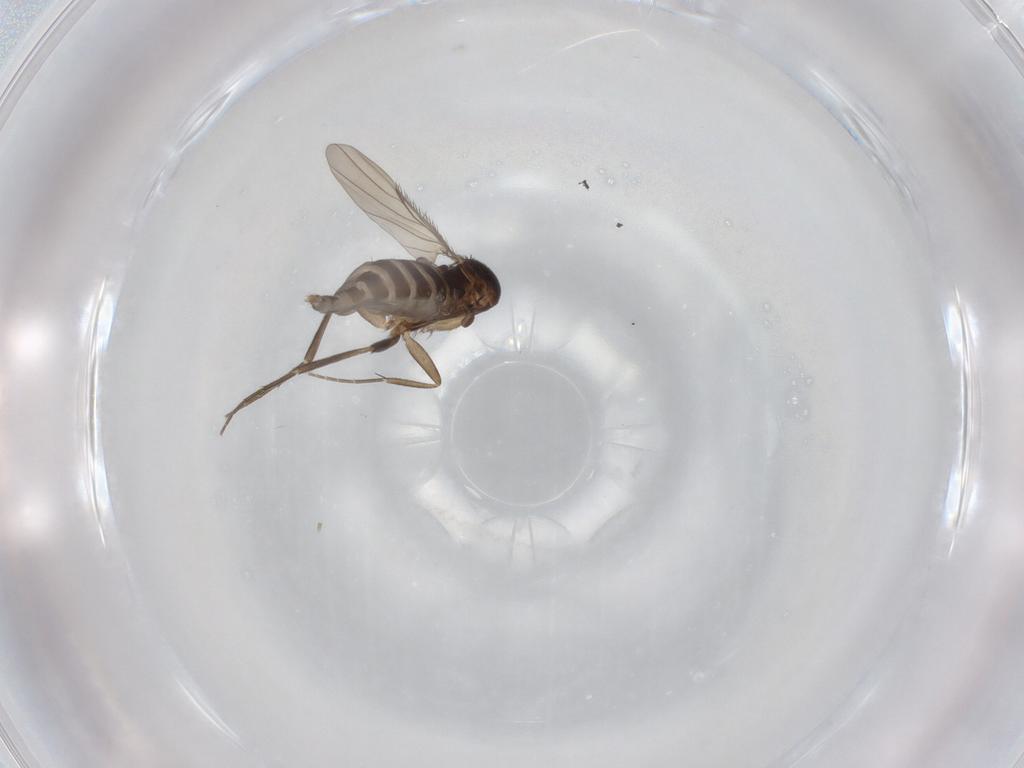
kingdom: Animalia
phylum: Arthropoda
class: Insecta
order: Diptera
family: Phoridae
